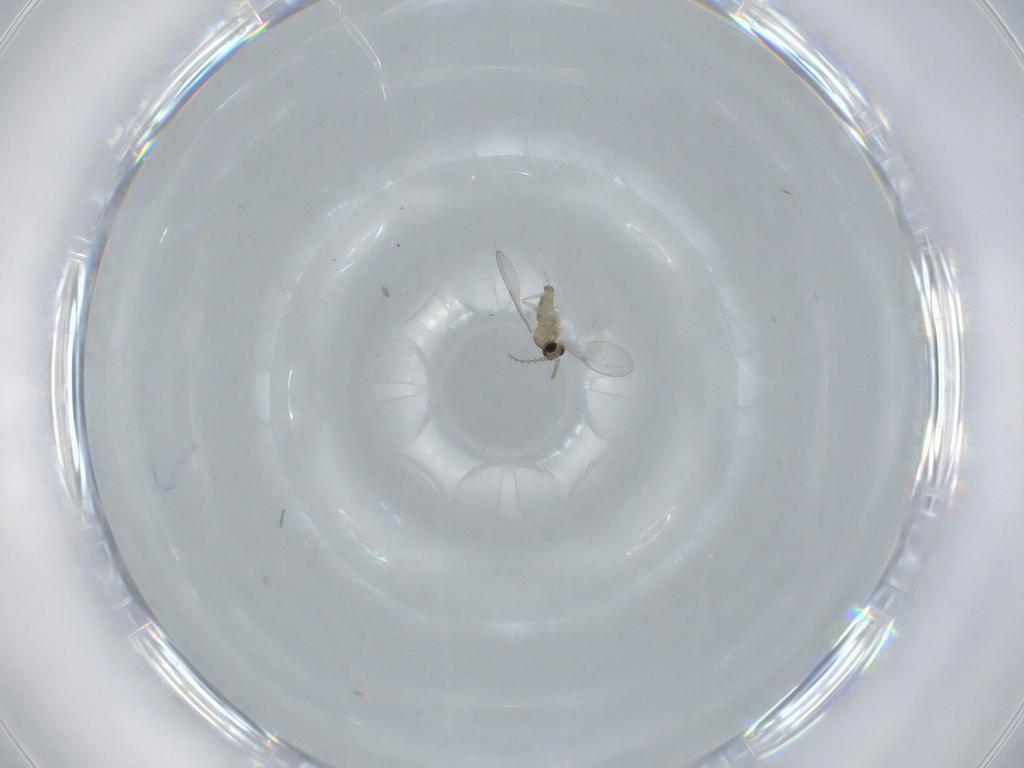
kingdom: Animalia
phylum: Arthropoda
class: Insecta
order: Diptera
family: Cecidomyiidae
